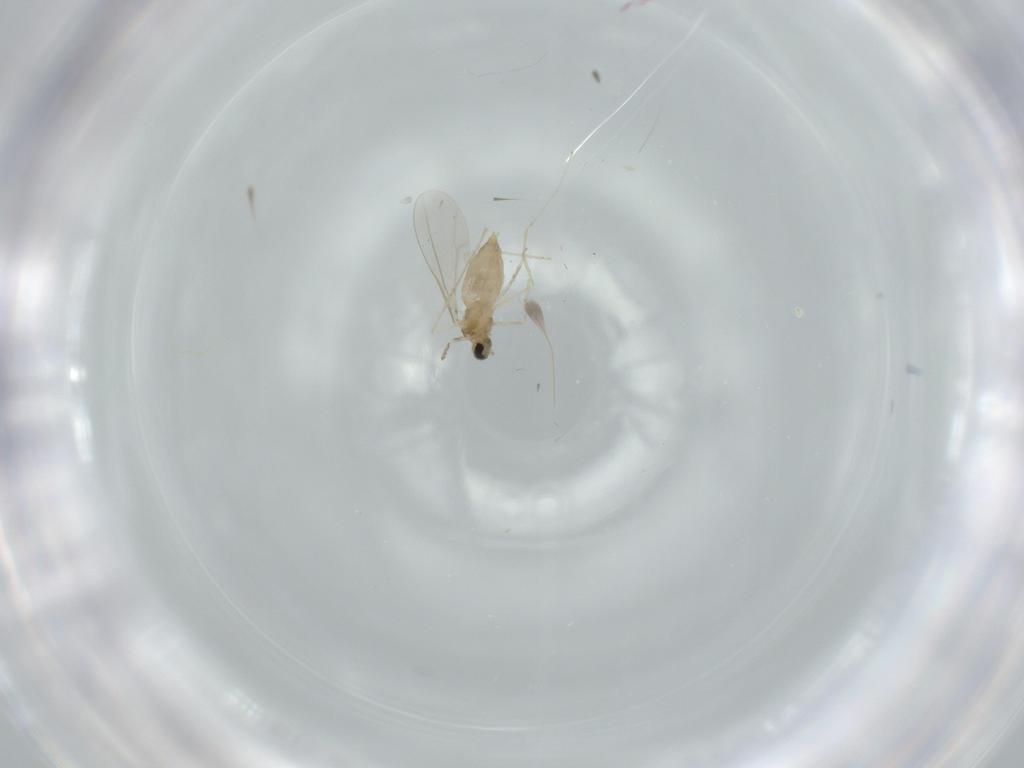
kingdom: Animalia
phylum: Arthropoda
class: Insecta
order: Diptera
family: Cecidomyiidae
